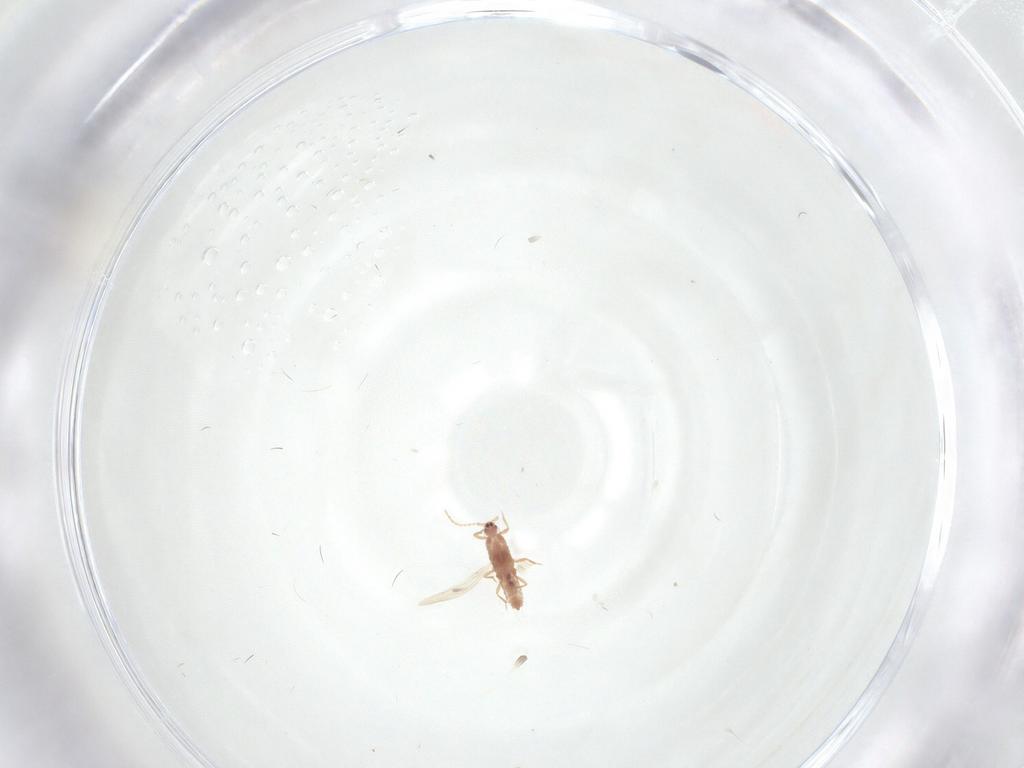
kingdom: Animalia
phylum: Arthropoda
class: Insecta
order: Hemiptera
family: Pseudococcidae
